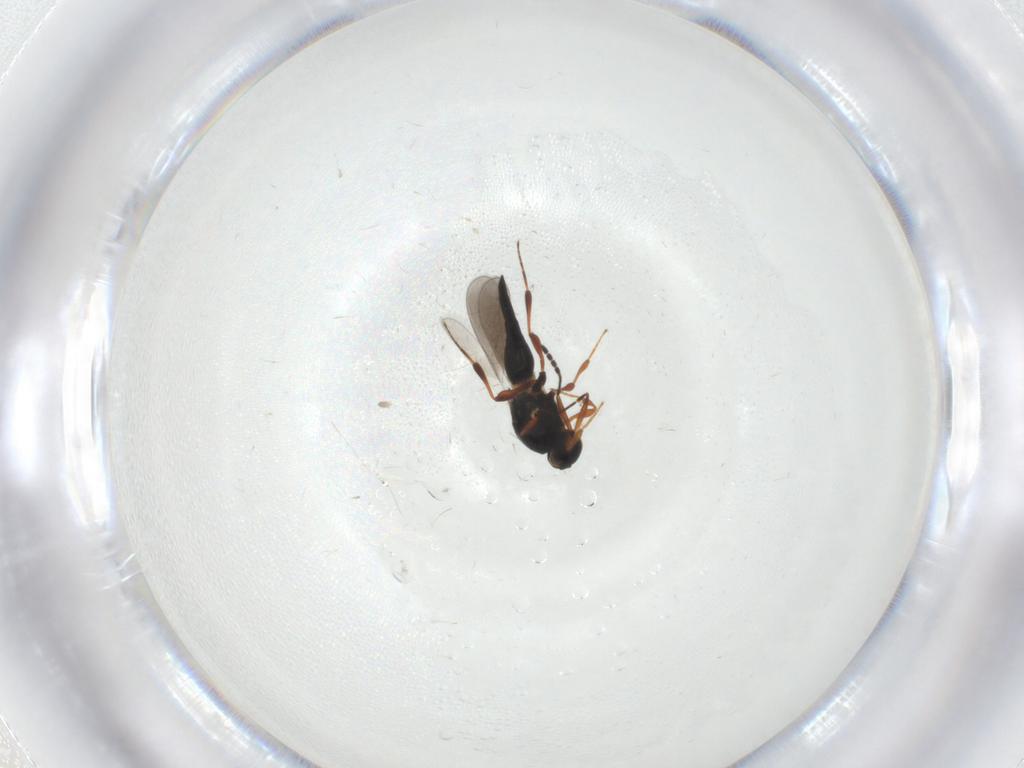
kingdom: Animalia
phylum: Arthropoda
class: Insecta
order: Hymenoptera
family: Platygastridae
